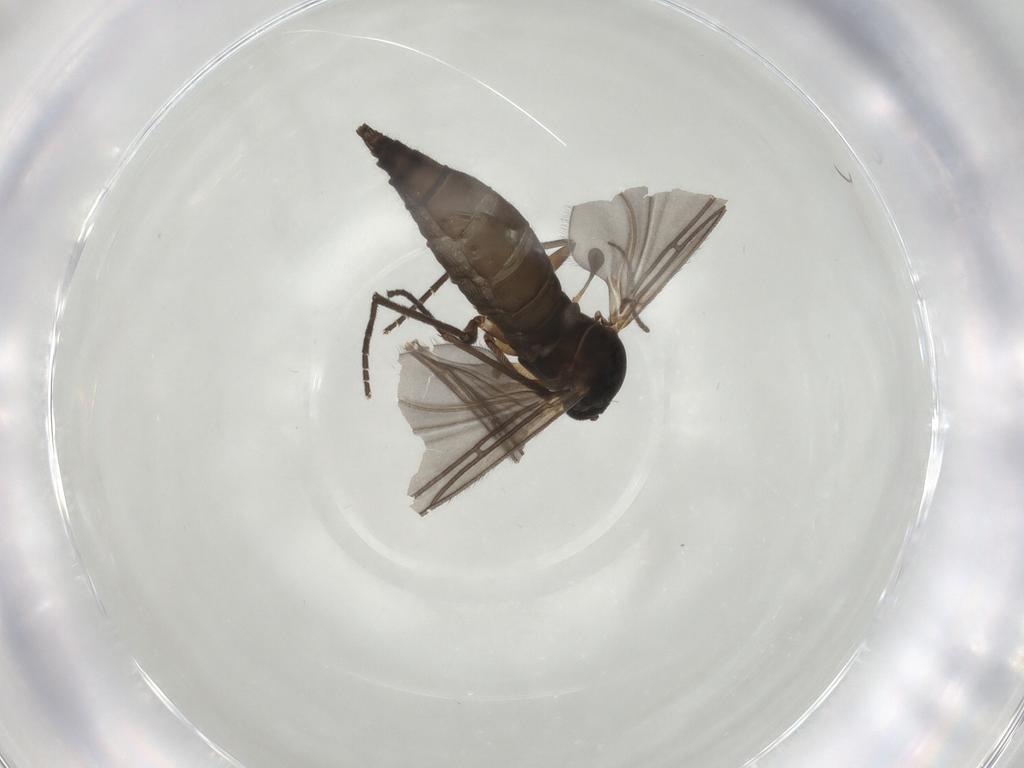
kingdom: Animalia
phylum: Arthropoda
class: Insecta
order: Diptera
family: Sciaridae
